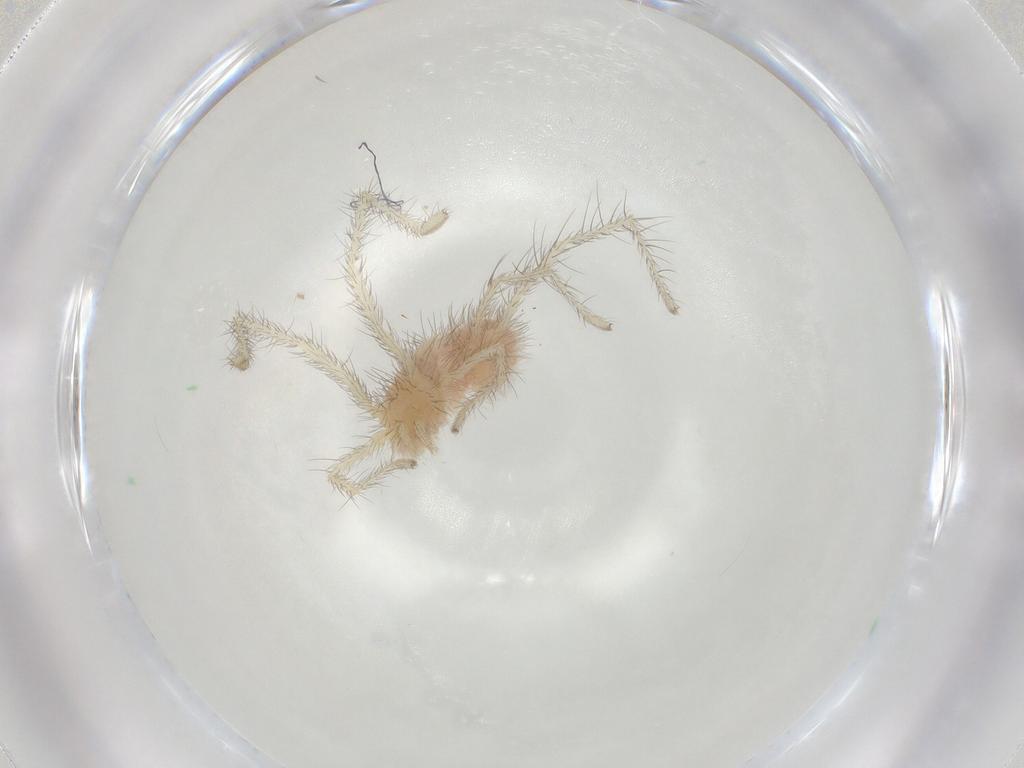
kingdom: Animalia
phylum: Arthropoda
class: Arachnida
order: Trombidiformes
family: Erythraeidae
